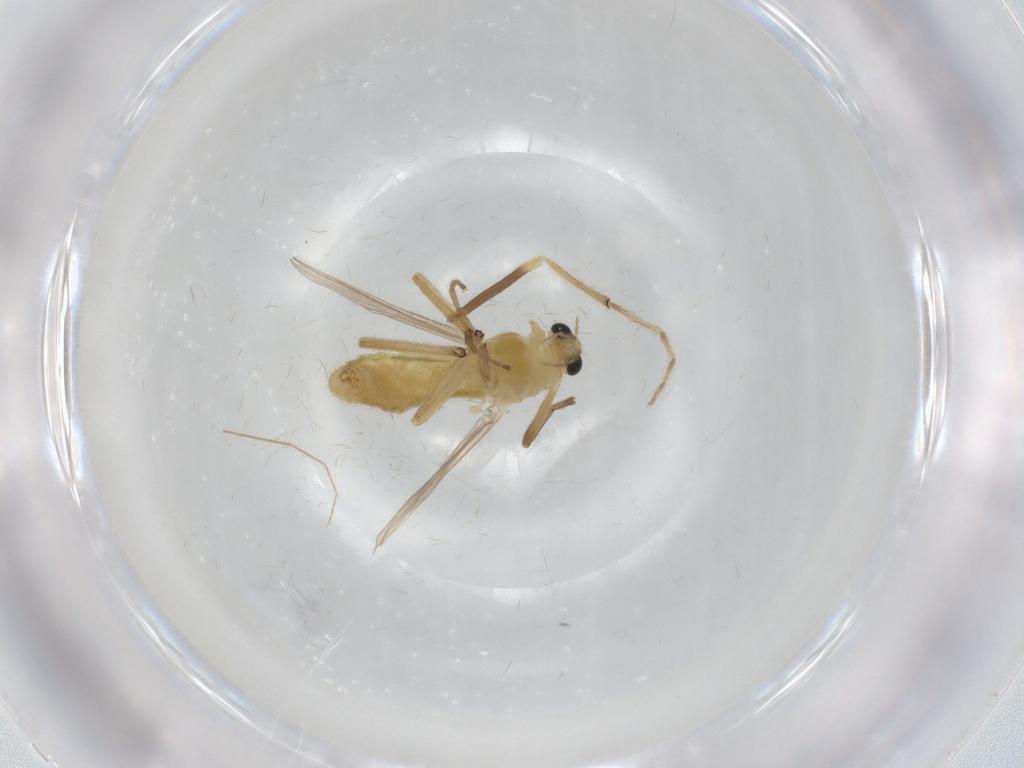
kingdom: Animalia
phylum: Arthropoda
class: Insecta
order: Diptera
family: Chironomidae
